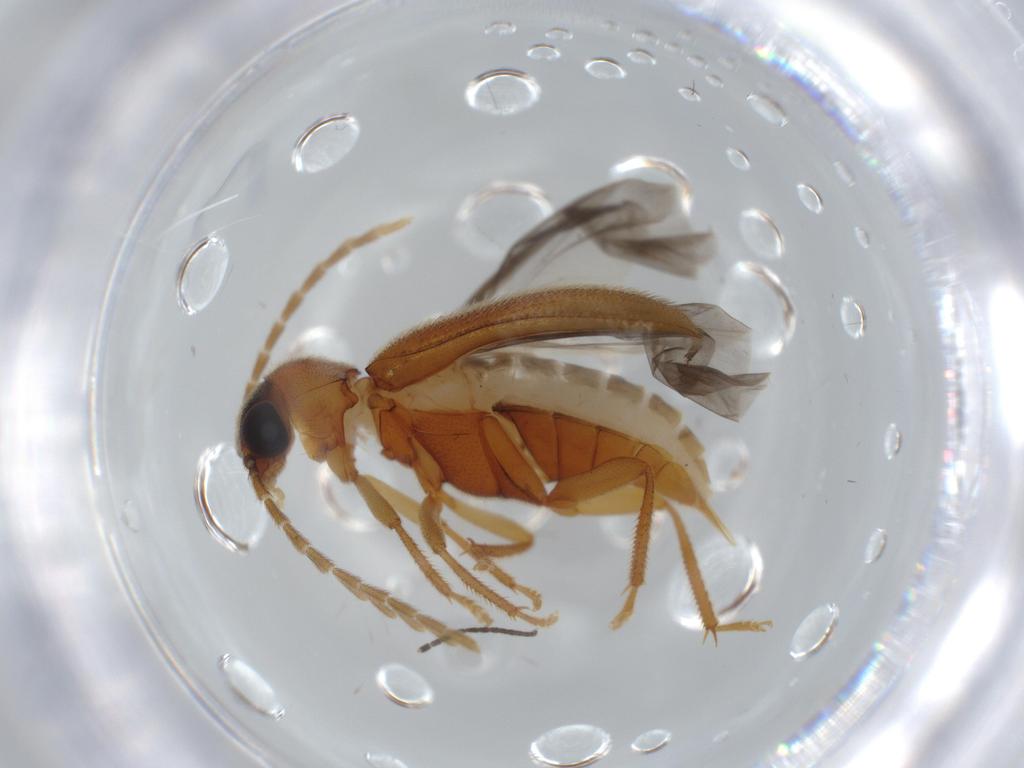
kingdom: Animalia
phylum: Arthropoda
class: Insecta
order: Coleoptera
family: Ptilodactylidae
